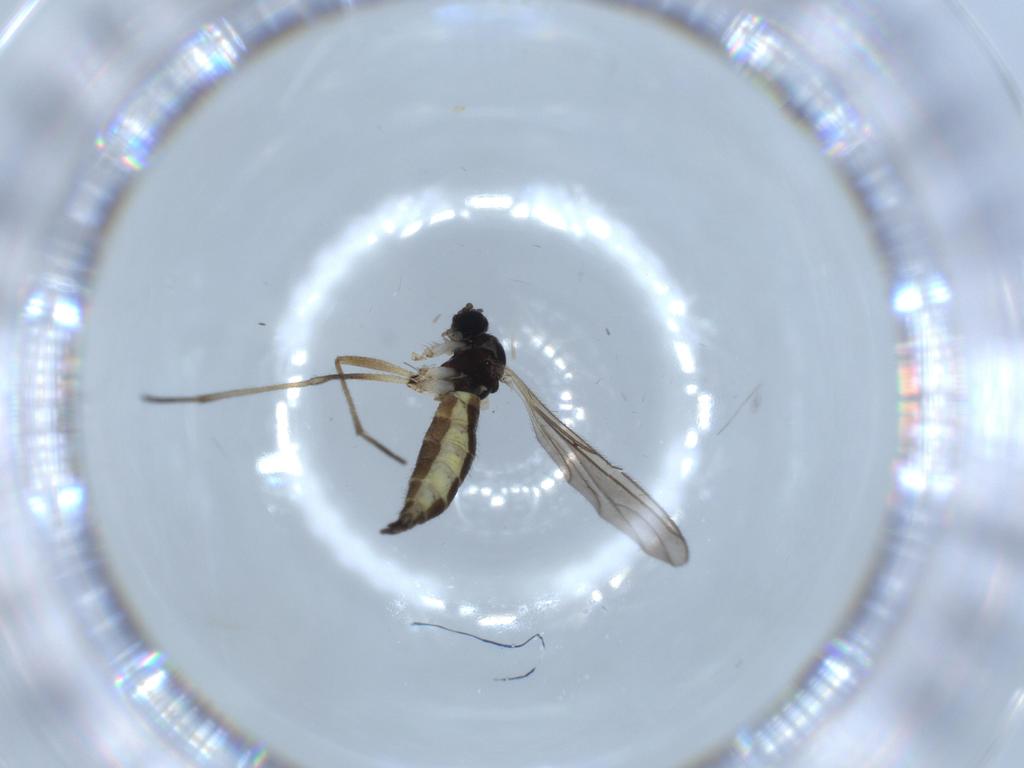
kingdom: Animalia
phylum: Arthropoda
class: Insecta
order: Diptera
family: Sciaridae
